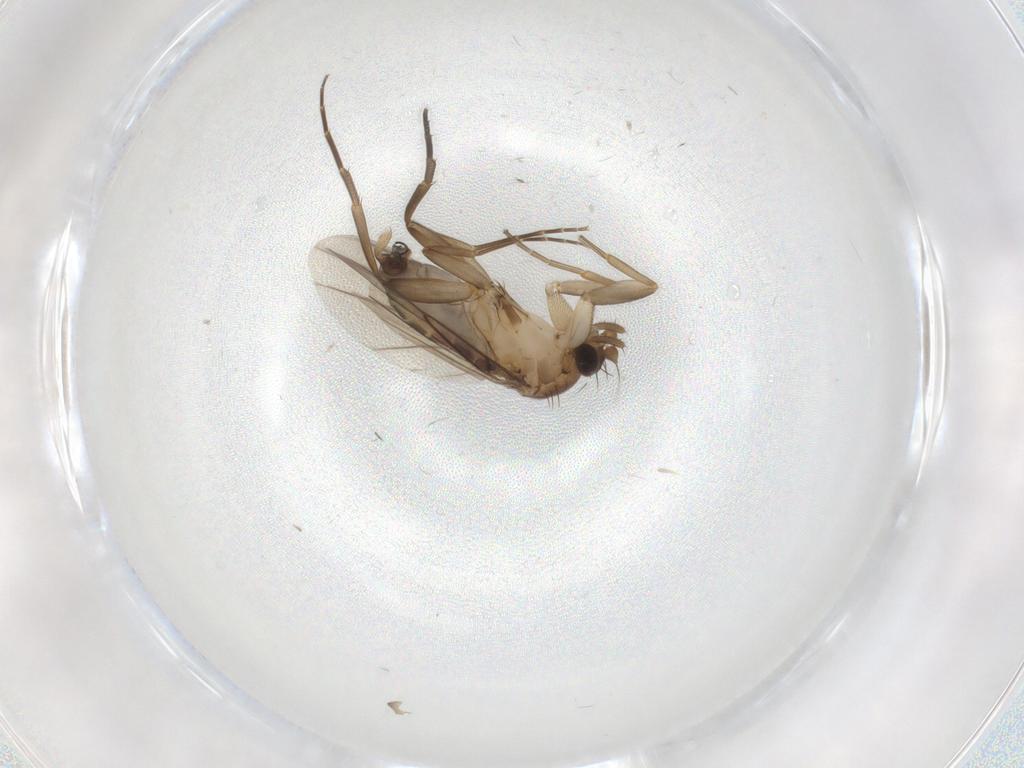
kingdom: Animalia
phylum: Arthropoda
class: Insecta
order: Diptera
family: Phoridae
